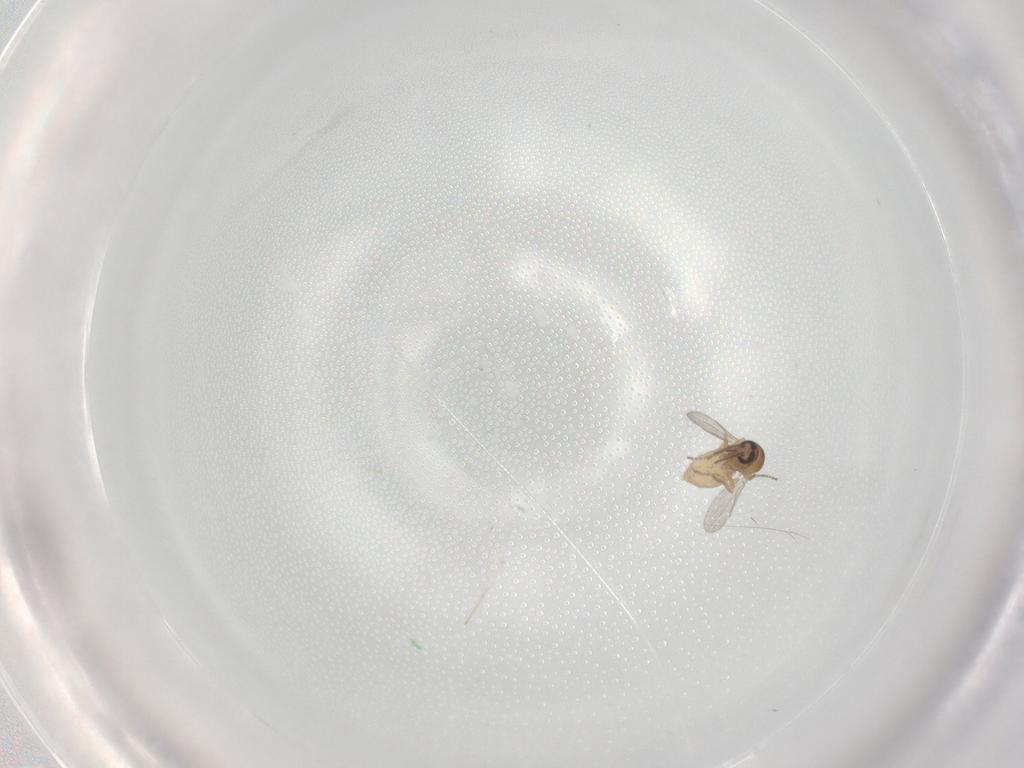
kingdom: Animalia
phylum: Arthropoda
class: Insecta
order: Diptera
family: Ceratopogonidae
